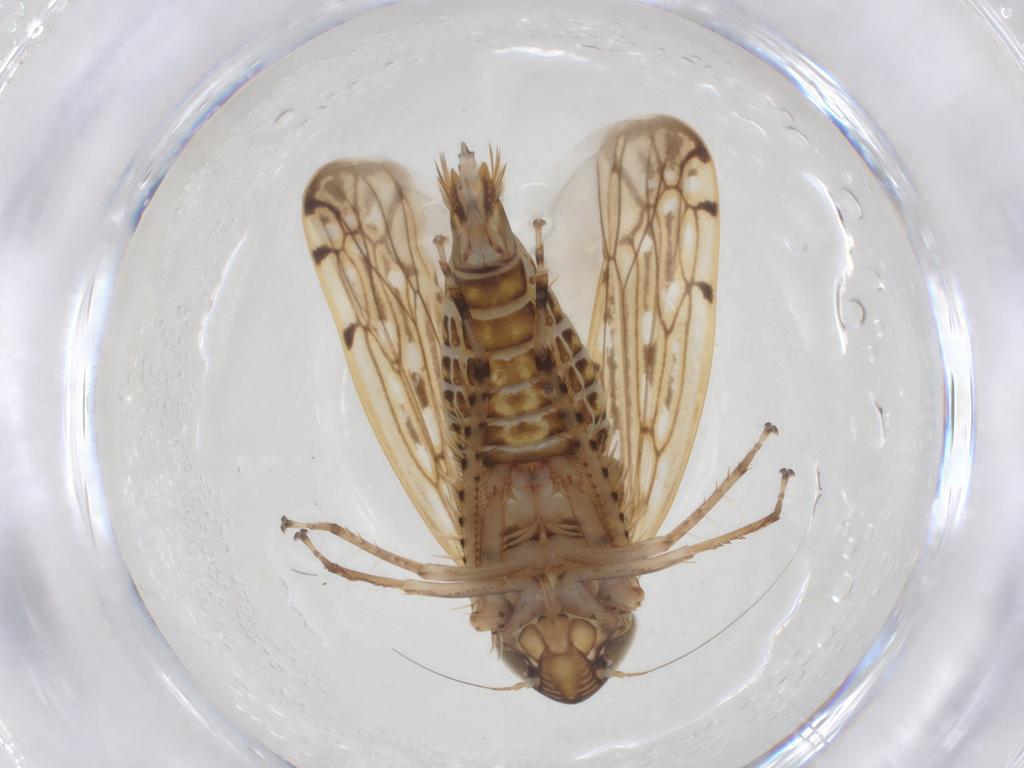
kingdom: Animalia
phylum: Arthropoda
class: Insecta
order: Hemiptera
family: Cicadellidae
